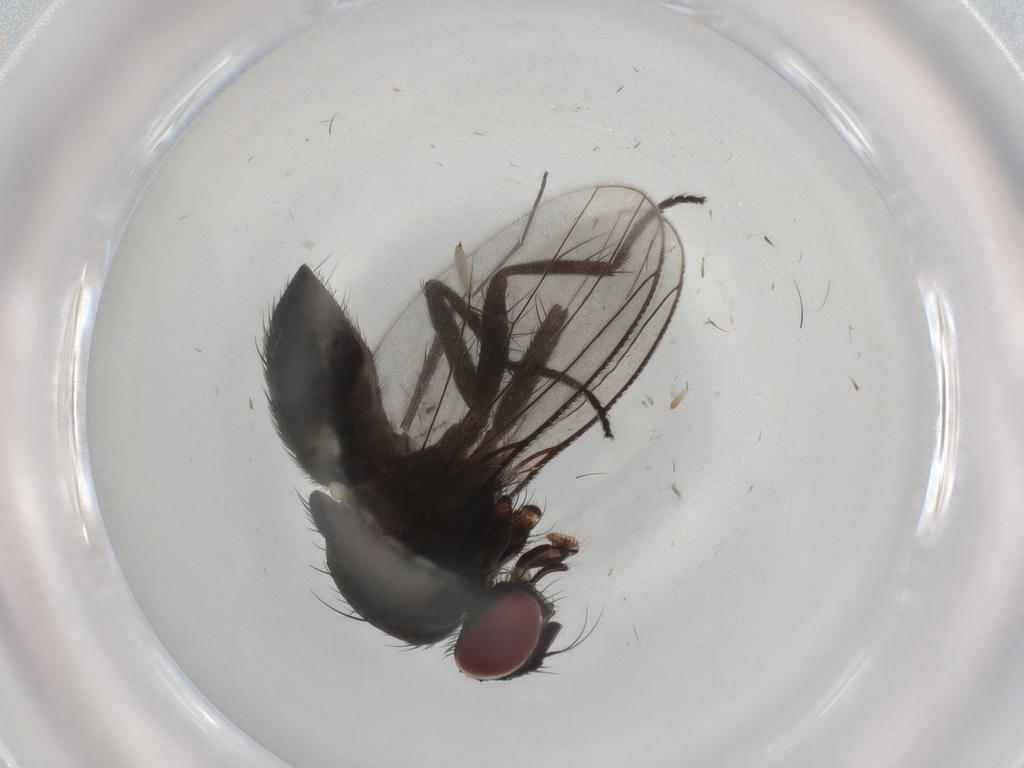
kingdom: Animalia
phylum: Arthropoda
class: Insecta
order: Diptera
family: Muscidae
